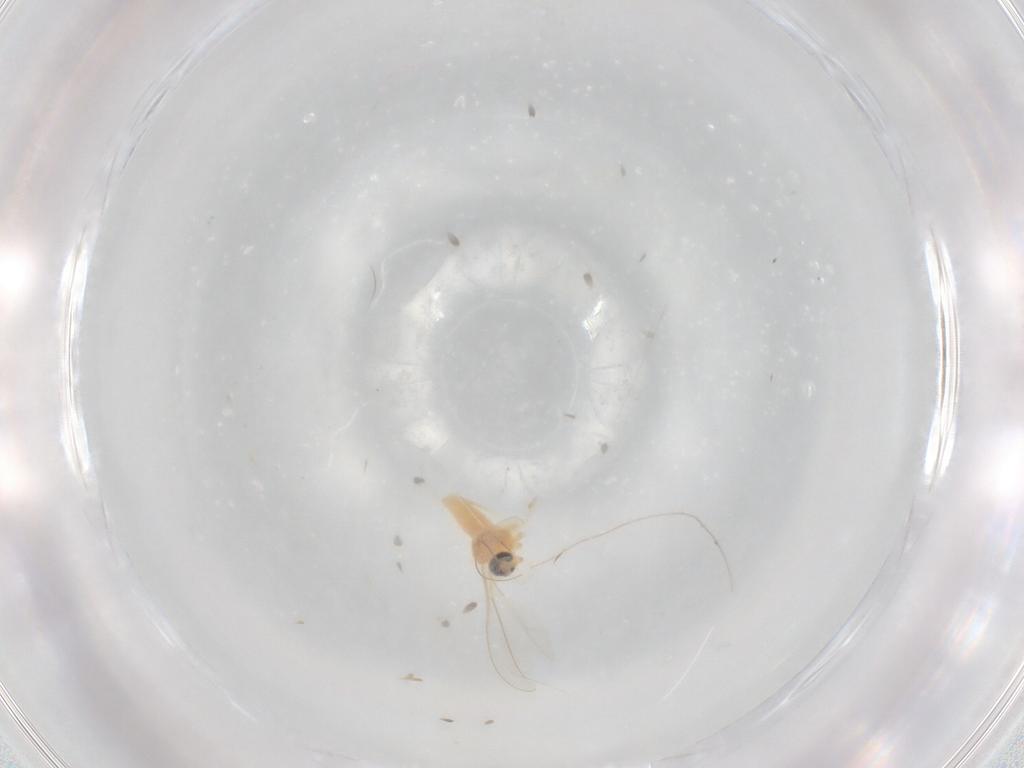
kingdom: Animalia
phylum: Arthropoda
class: Insecta
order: Diptera
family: Cecidomyiidae
